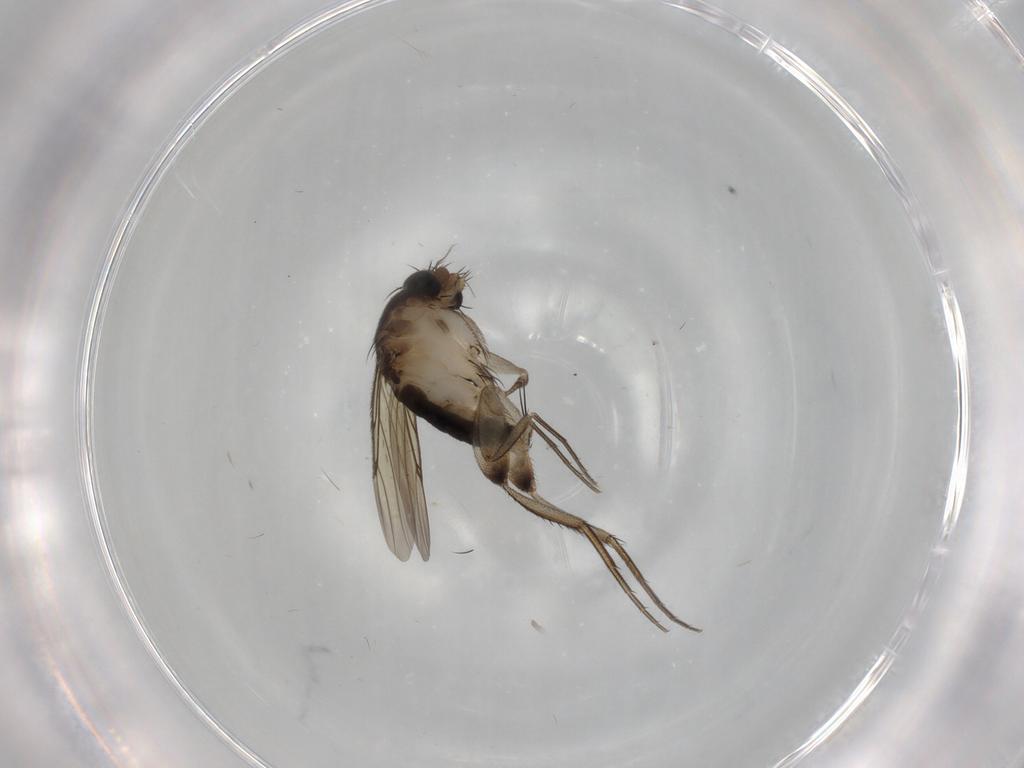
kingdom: Animalia
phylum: Arthropoda
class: Insecta
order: Diptera
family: Phoridae
